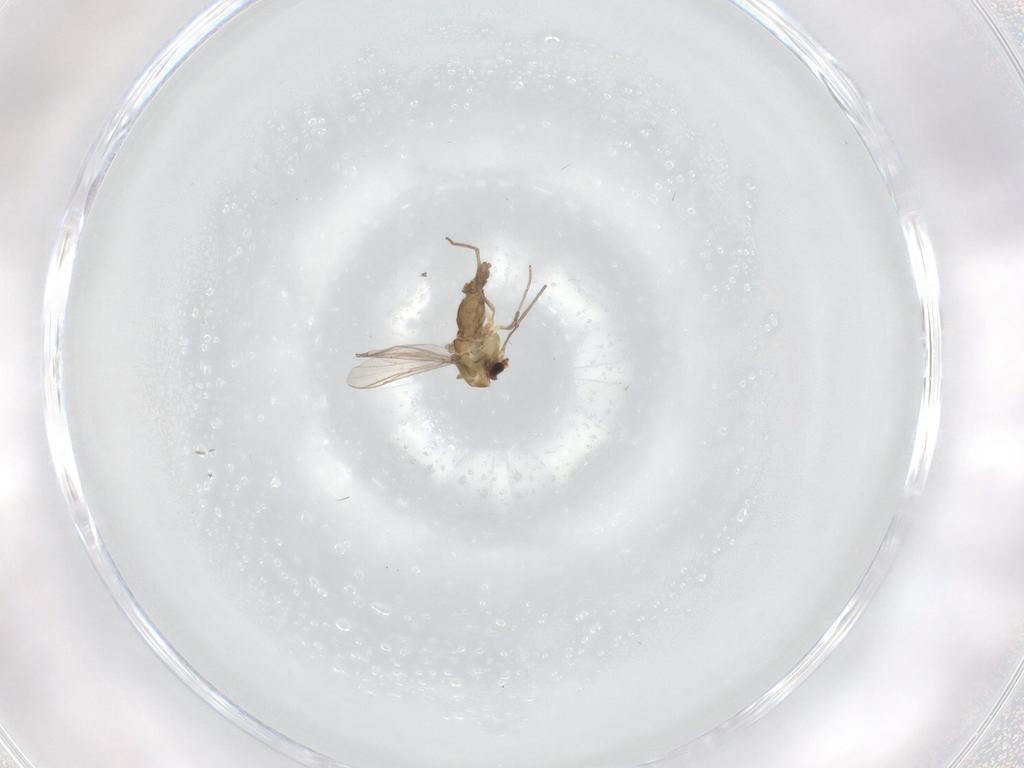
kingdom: Animalia
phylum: Arthropoda
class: Insecta
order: Diptera
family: Chironomidae
